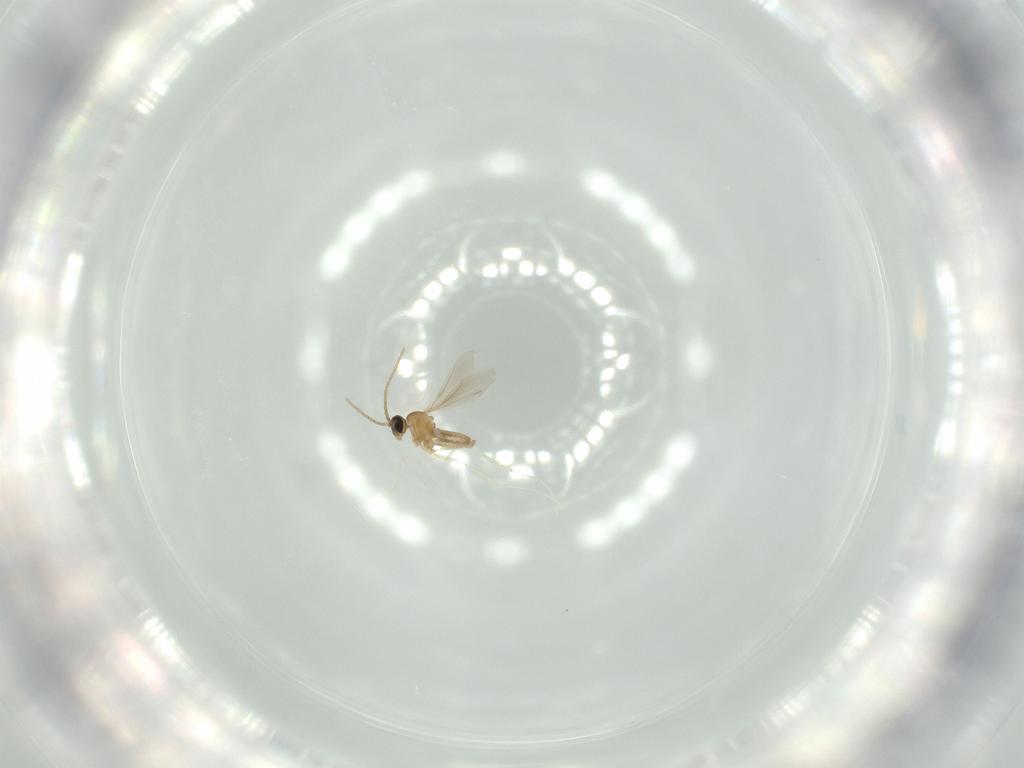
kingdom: Animalia
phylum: Arthropoda
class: Insecta
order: Diptera
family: Cecidomyiidae
